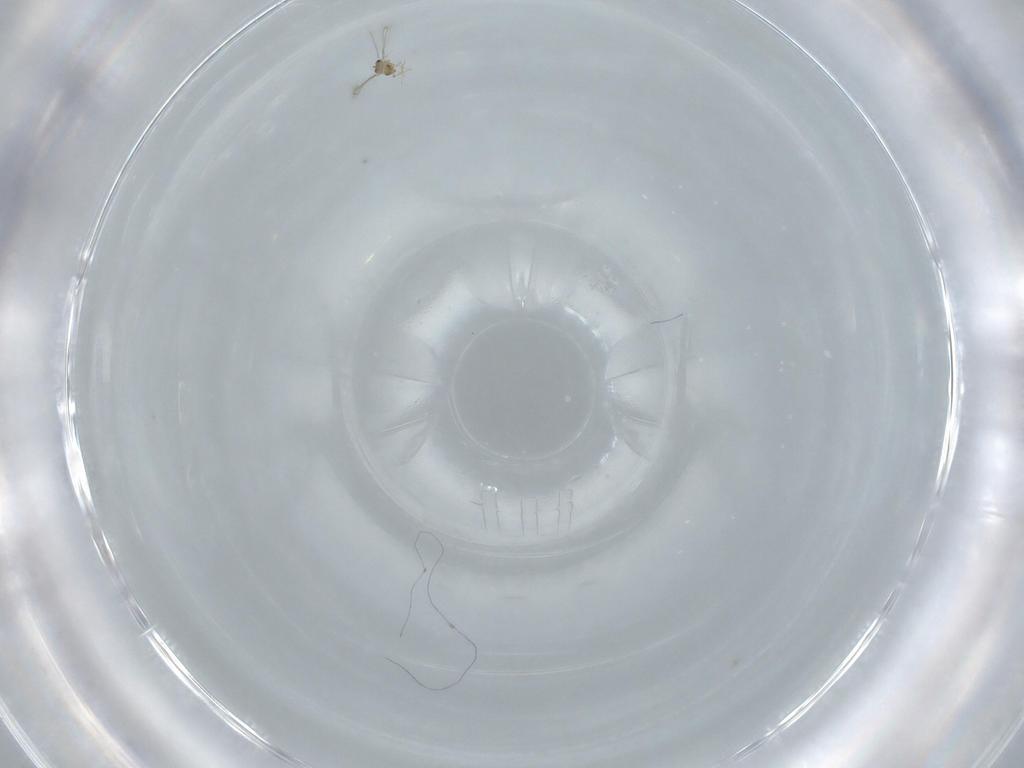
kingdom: Animalia
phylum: Arthropoda
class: Insecta
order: Hymenoptera
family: Mymaridae
